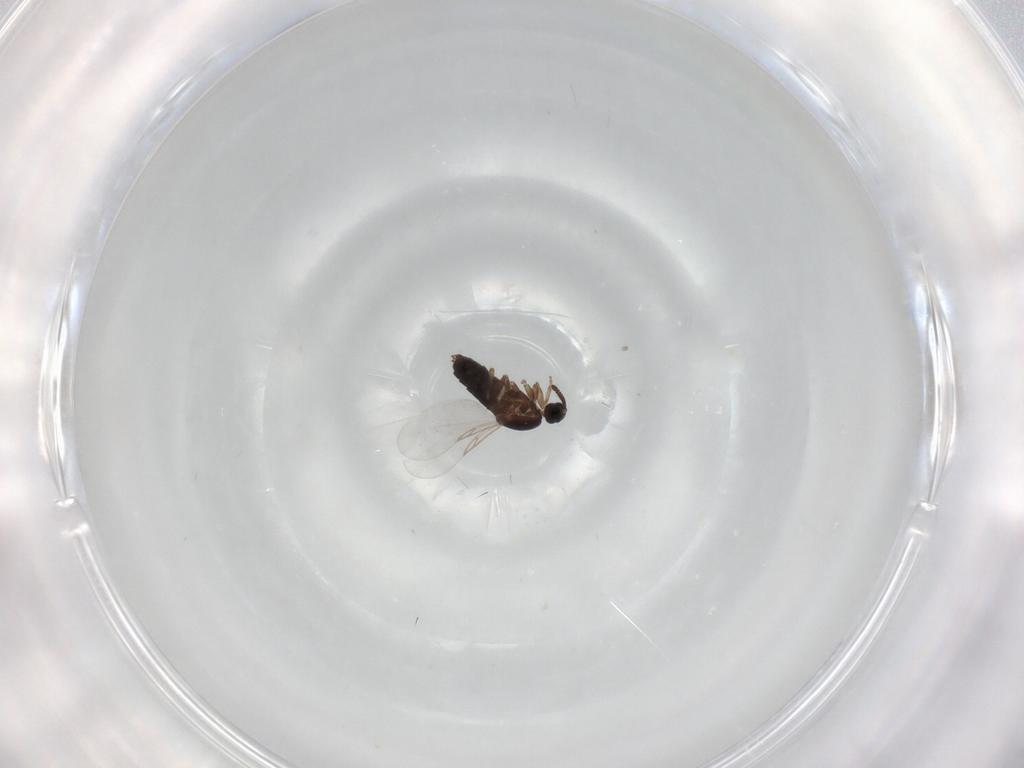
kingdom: Animalia
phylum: Arthropoda
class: Insecta
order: Diptera
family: Scatopsidae
